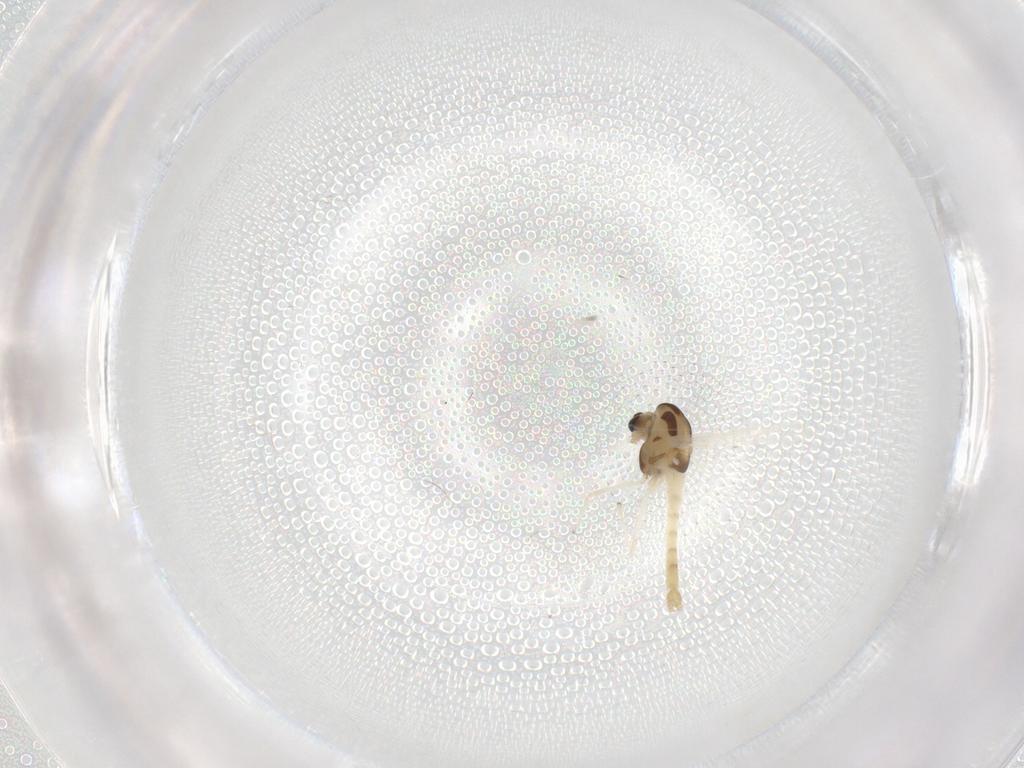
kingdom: Animalia
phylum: Arthropoda
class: Insecta
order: Diptera
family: Chironomidae
